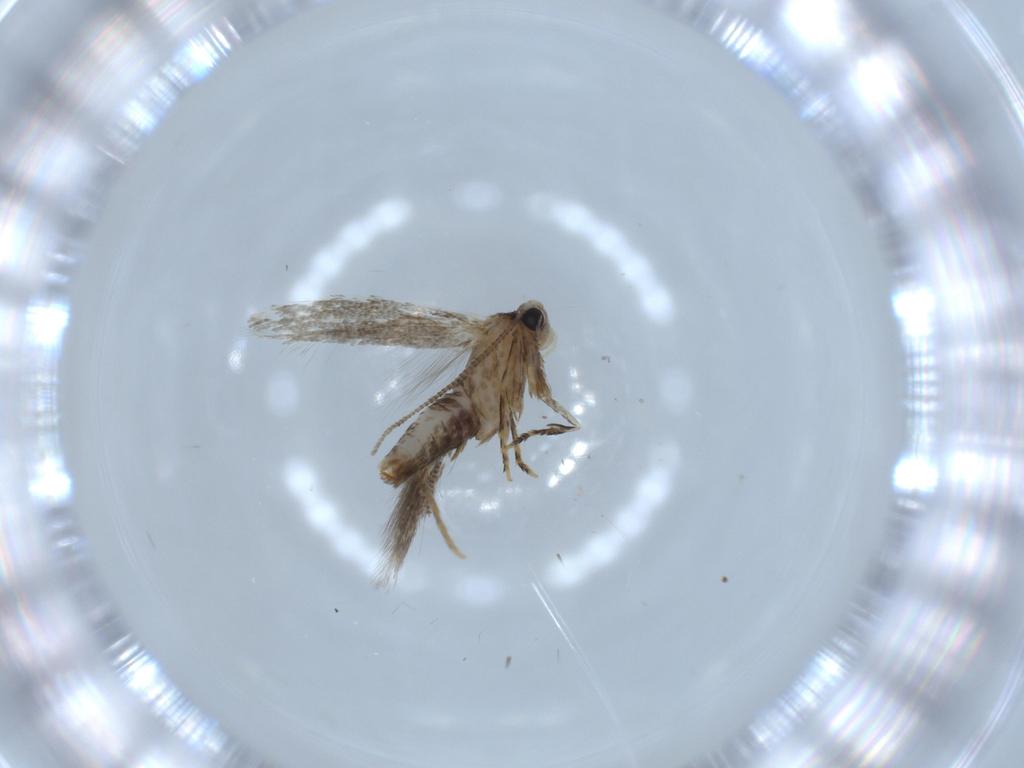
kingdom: Animalia
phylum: Arthropoda
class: Insecta
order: Lepidoptera
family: Tineidae
